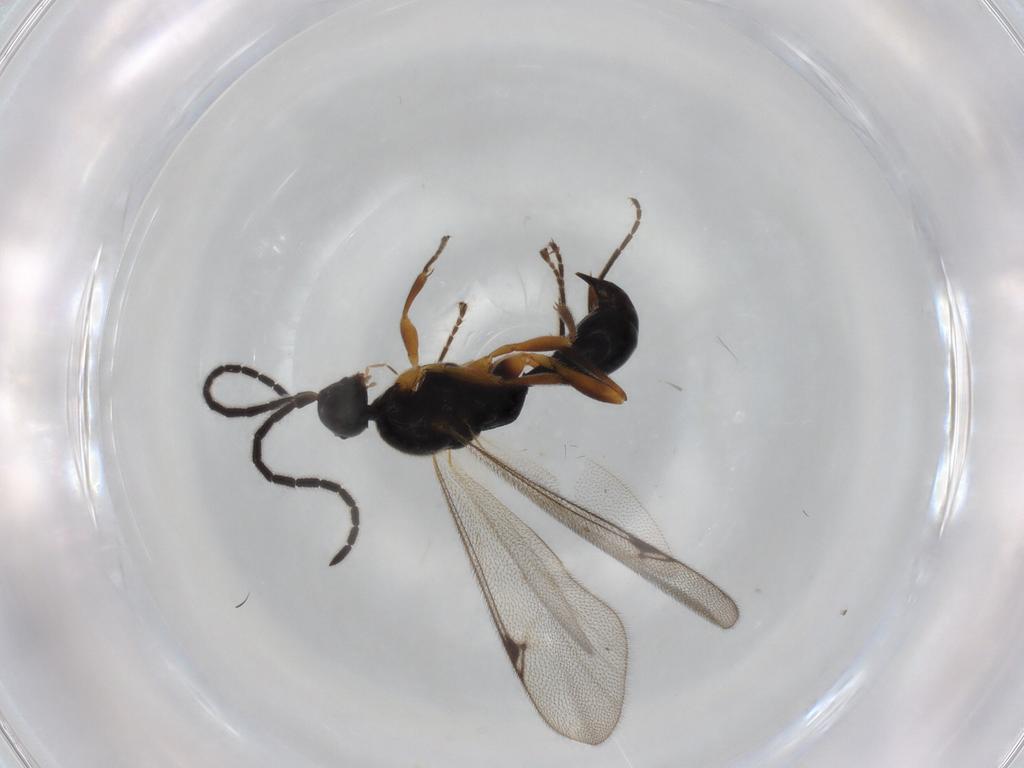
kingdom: Animalia
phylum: Arthropoda
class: Insecta
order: Hymenoptera
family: Proctotrupidae
